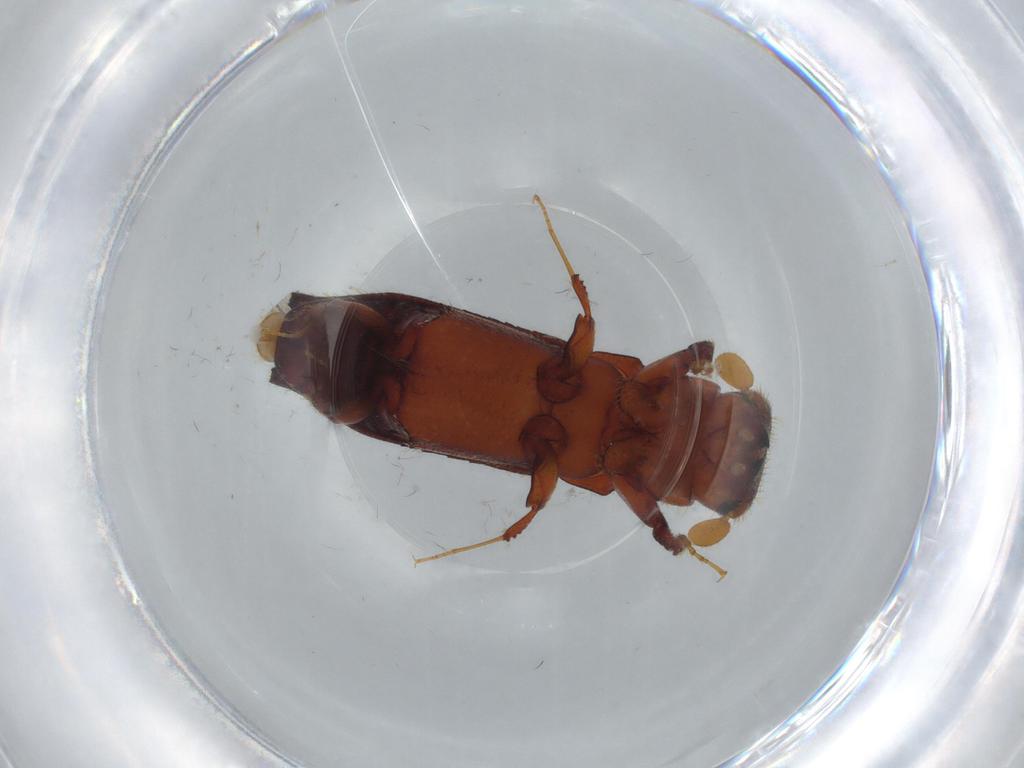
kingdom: Animalia
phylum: Arthropoda
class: Insecta
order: Coleoptera
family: Curculionidae
